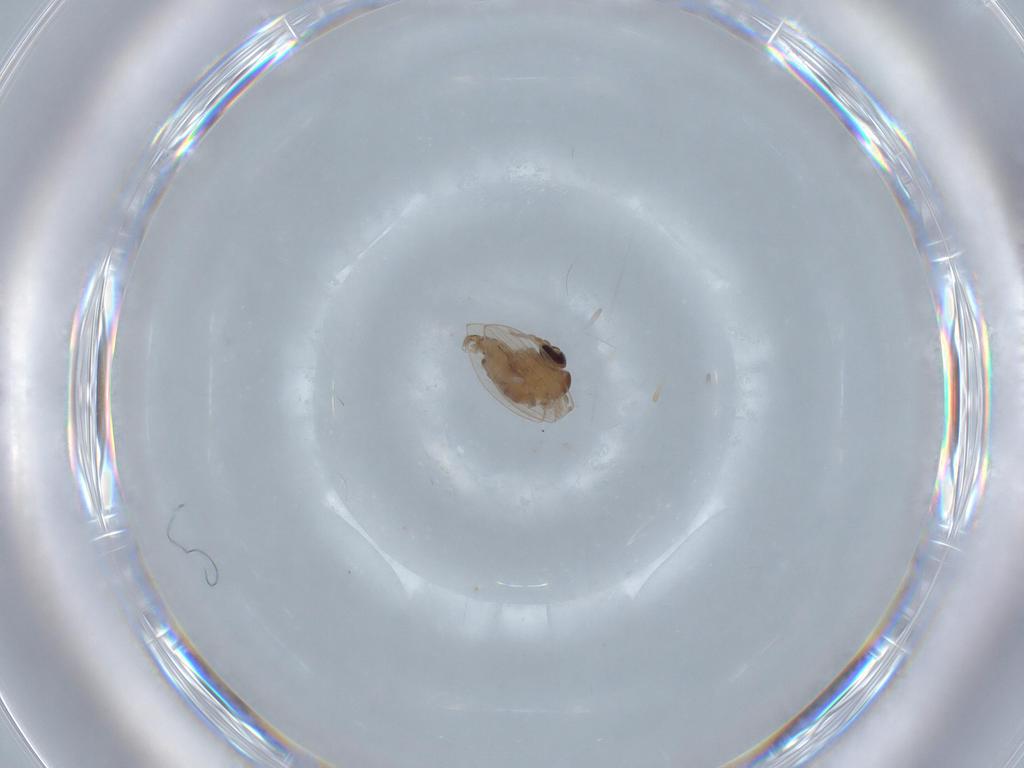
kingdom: Animalia
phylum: Arthropoda
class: Insecta
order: Diptera
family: Psychodidae
